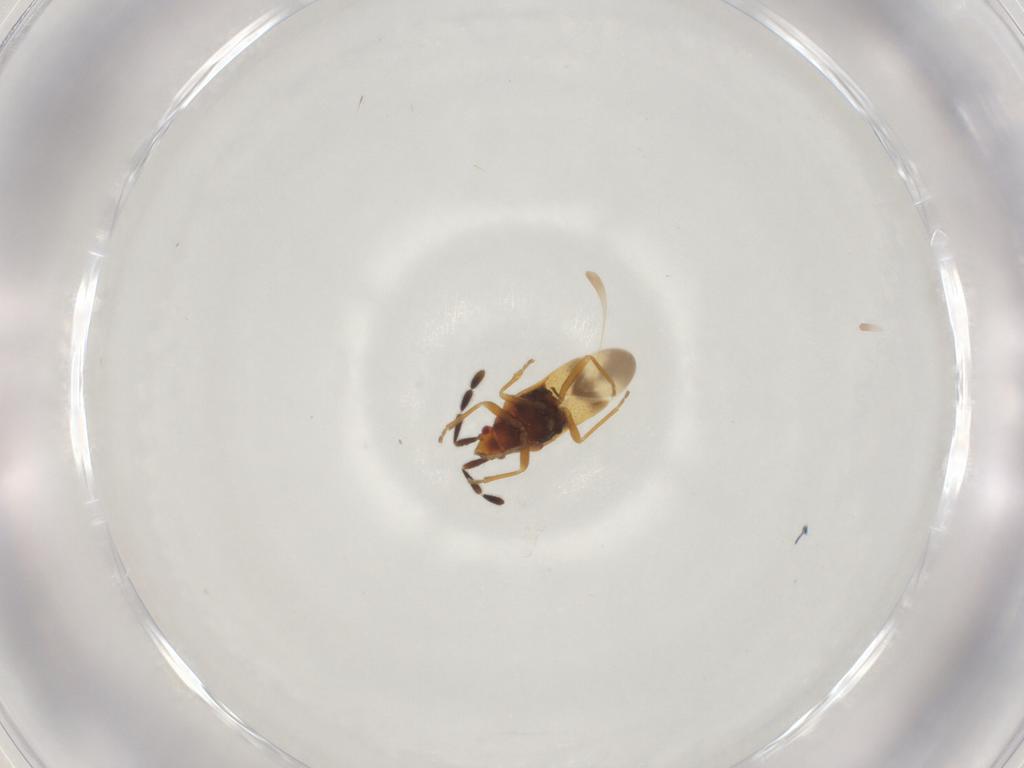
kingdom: Animalia
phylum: Arthropoda
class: Insecta
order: Hemiptera
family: Rhyparochromidae
